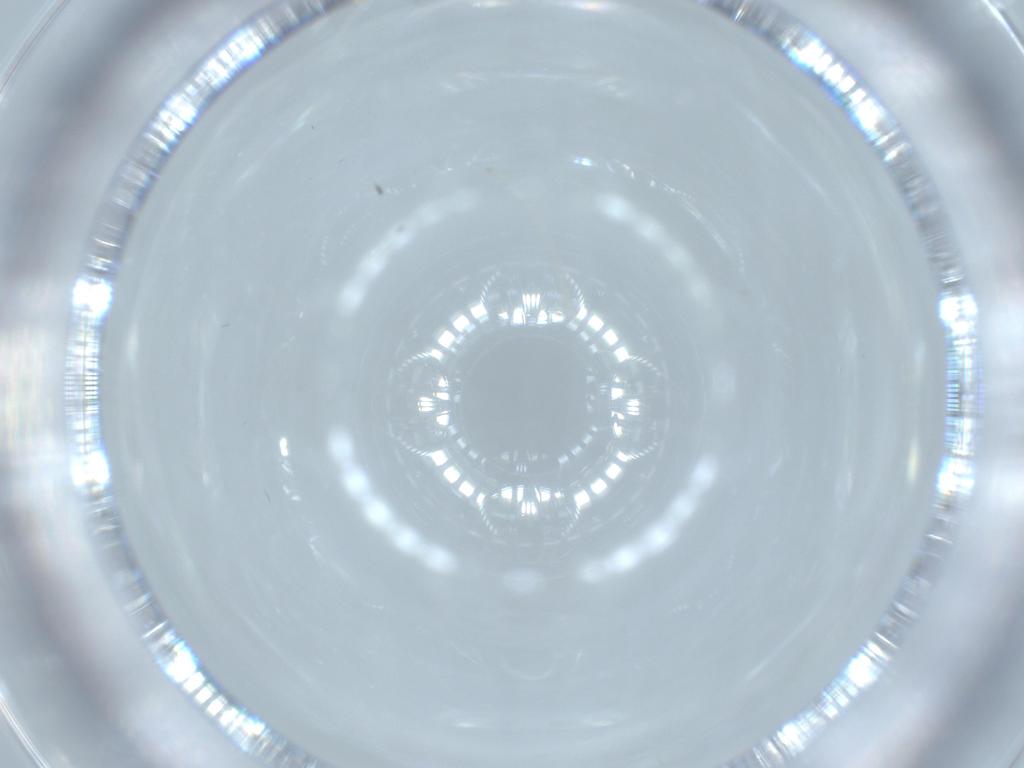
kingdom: Animalia
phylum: Arthropoda
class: Insecta
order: Diptera
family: Cecidomyiidae
